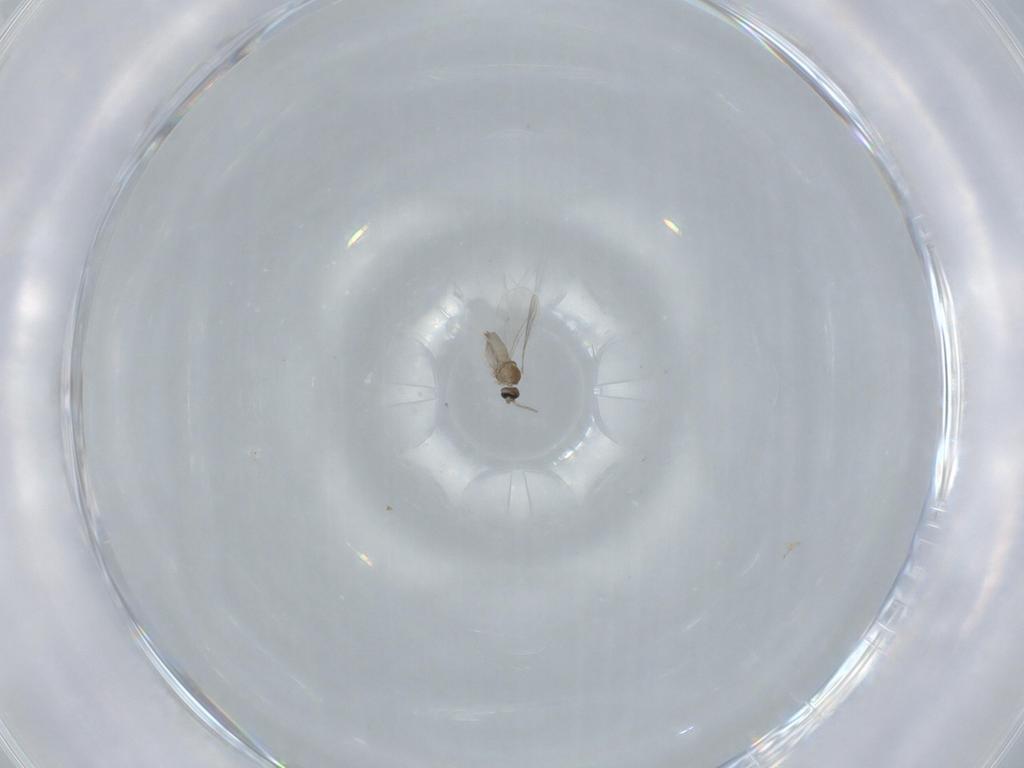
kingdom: Animalia
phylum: Arthropoda
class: Insecta
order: Diptera
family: Cecidomyiidae
